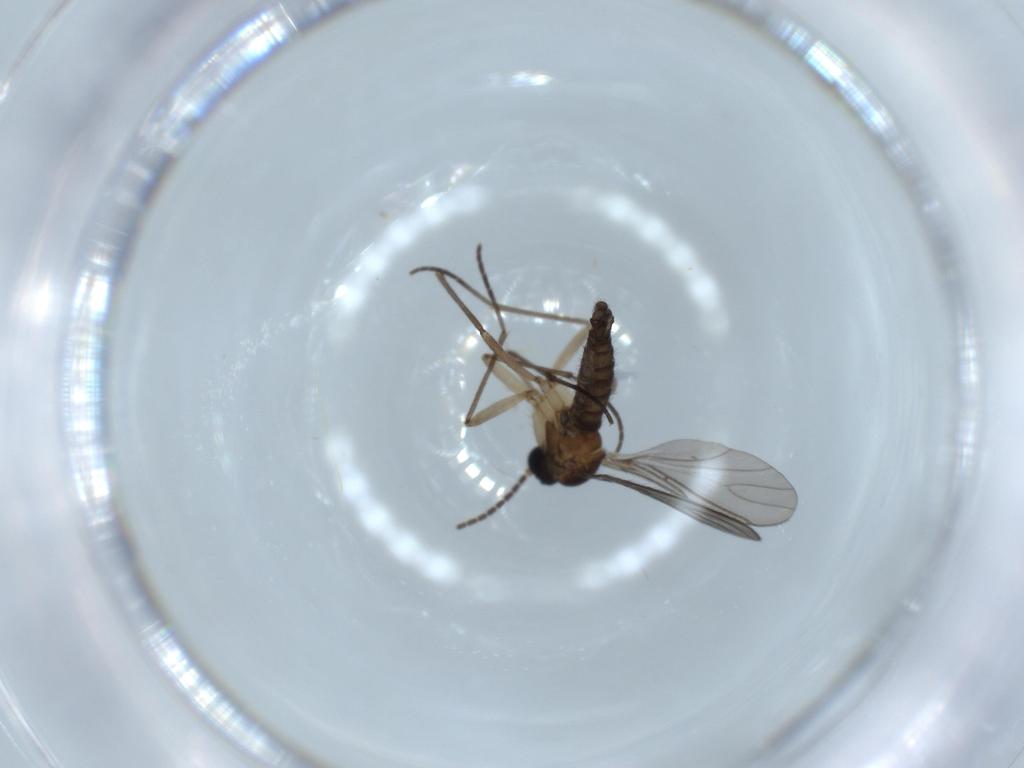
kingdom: Animalia
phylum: Arthropoda
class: Insecta
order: Diptera
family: Sciaridae
